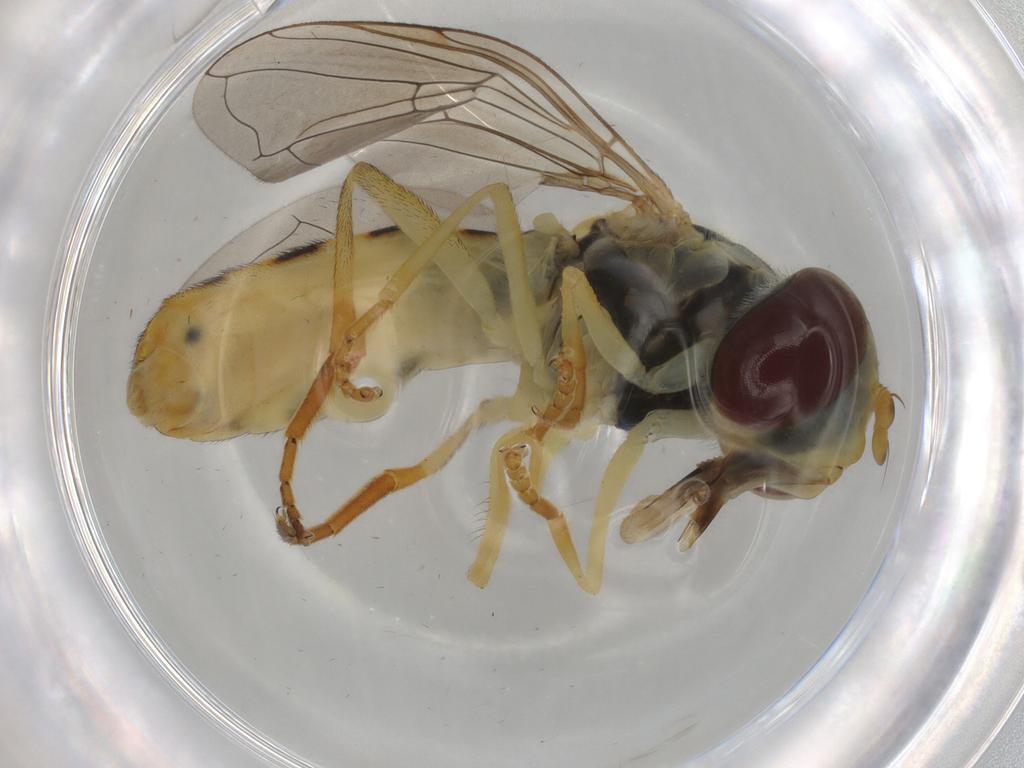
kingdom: Animalia
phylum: Arthropoda
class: Insecta
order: Diptera
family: Syrphidae
